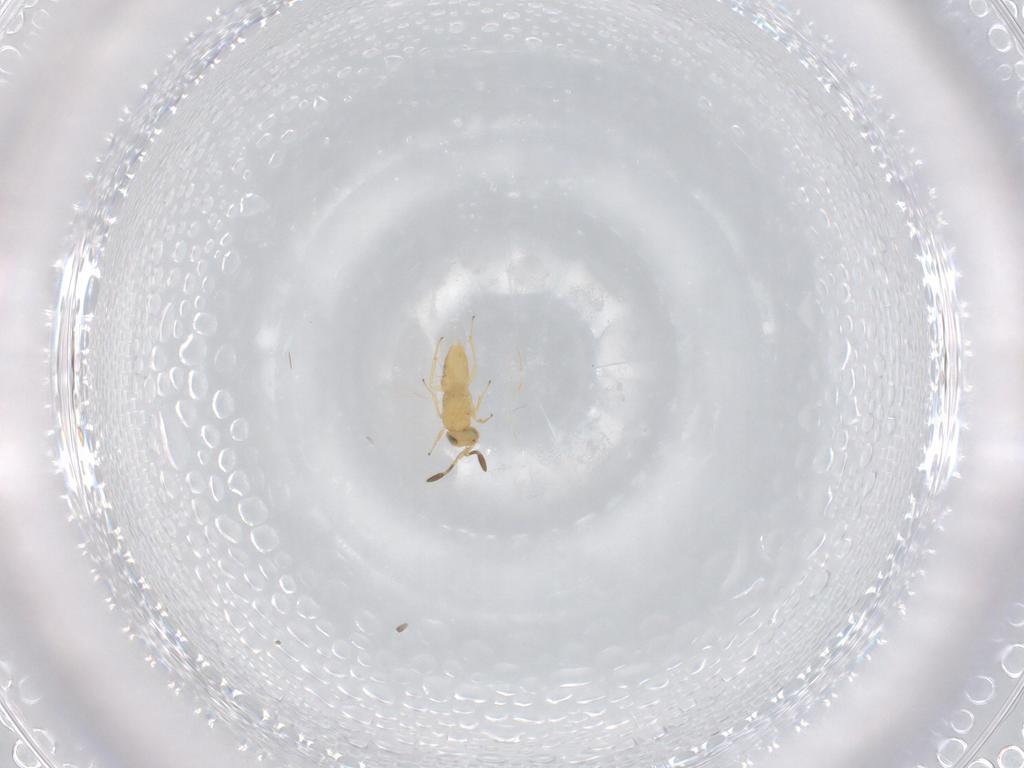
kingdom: Animalia
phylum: Arthropoda
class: Insecta
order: Hymenoptera
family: Encyrtidae
